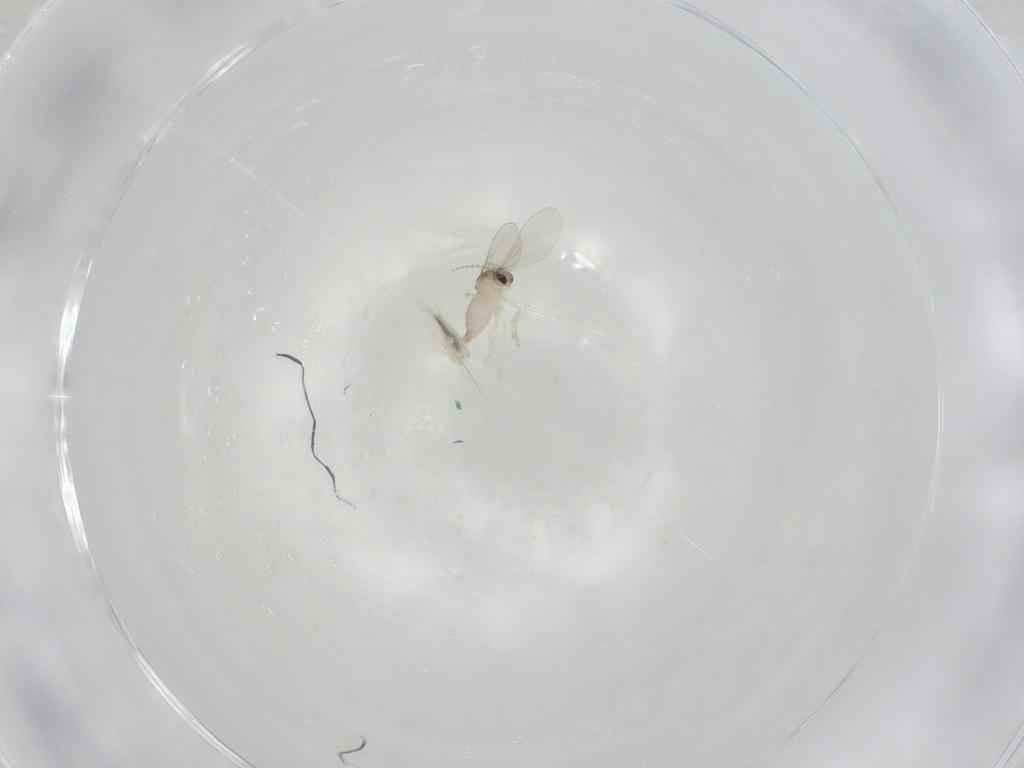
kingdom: Animalia
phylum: Arthropoda
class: Insecta
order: Diptera
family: Cecidomyiidae
